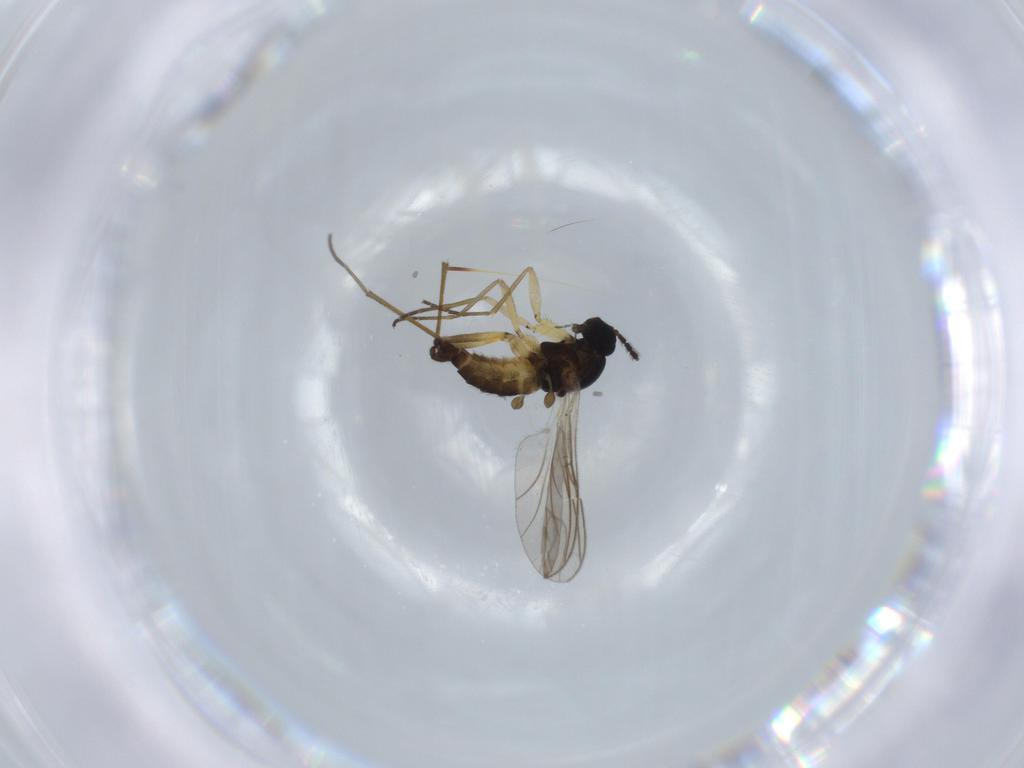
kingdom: Animalia
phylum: Arthropoda
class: Insecta
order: Diptera
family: Sciaridae
